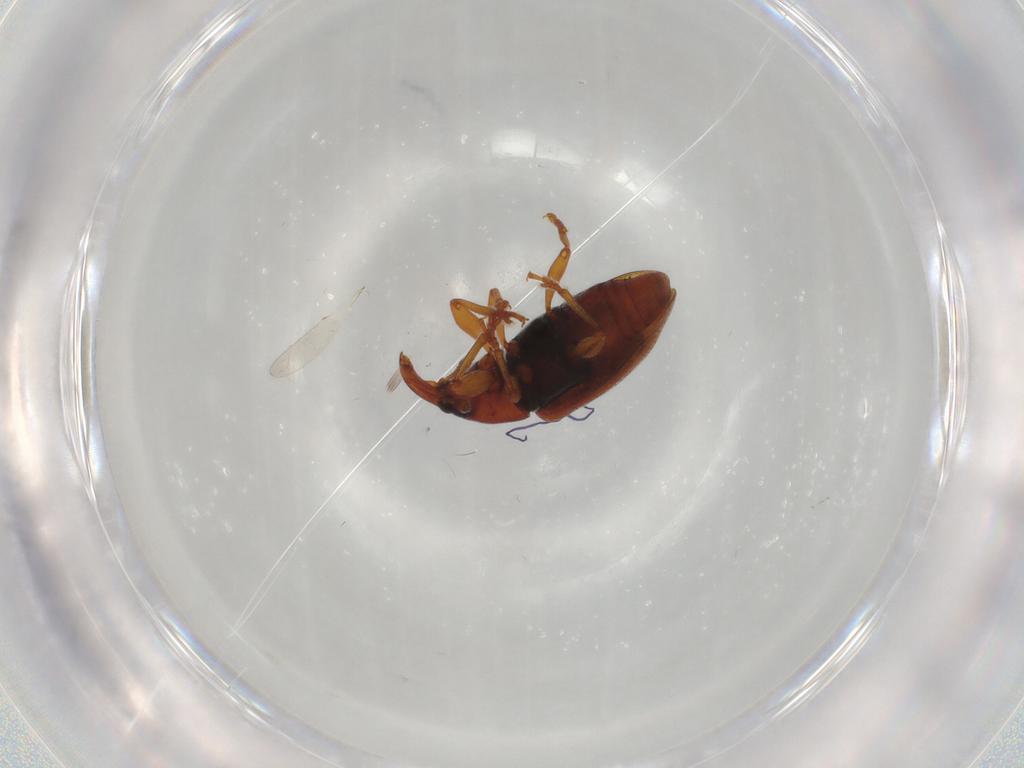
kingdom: Animalia
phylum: Arthropoda
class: Insecta
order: Coleoptera
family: Curculionidae
